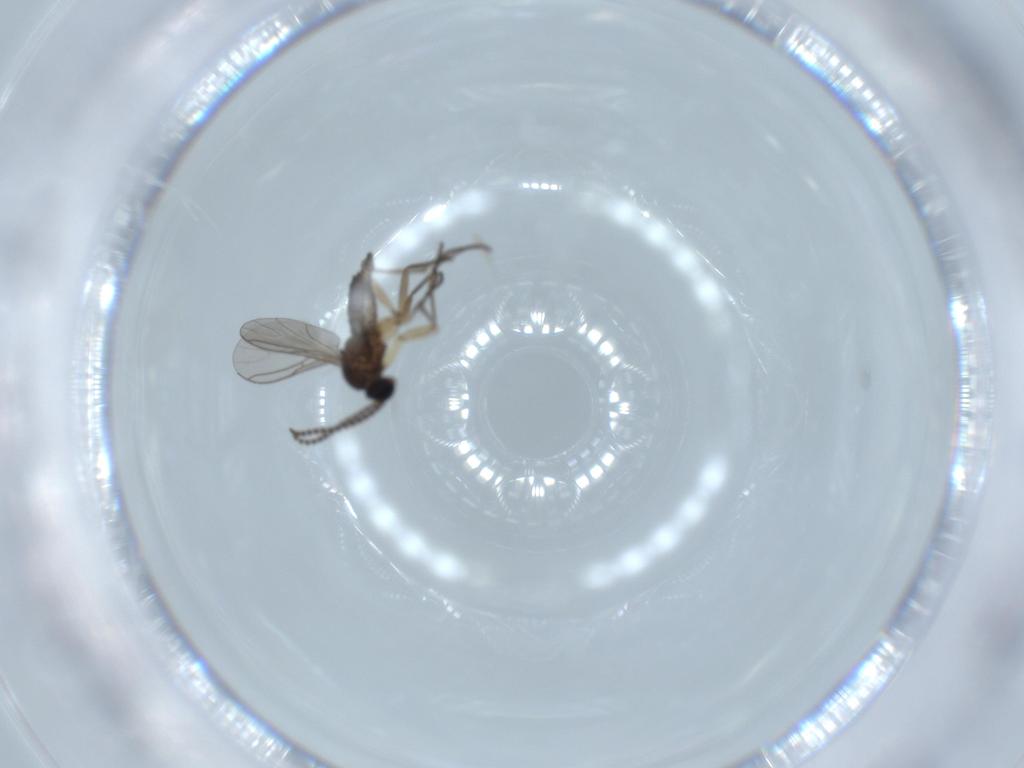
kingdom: Animalia
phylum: Arthropoda
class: Insecta
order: Diptera
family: Sciaridae
